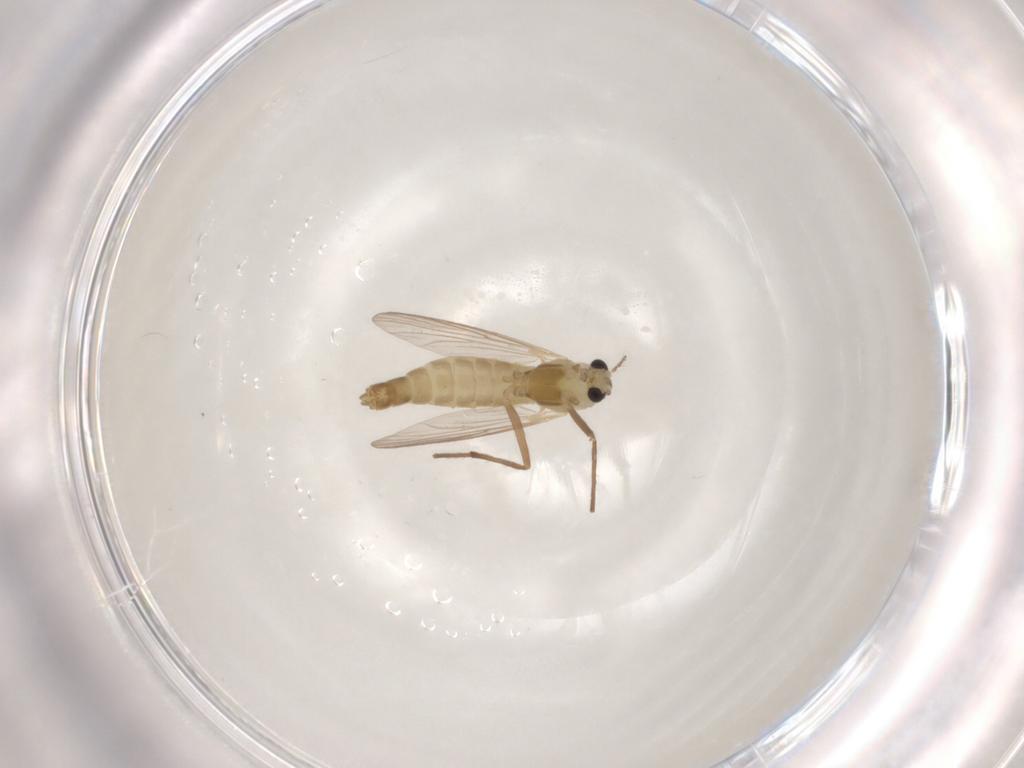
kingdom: Animalia
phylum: Arthropoda
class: Insecta
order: Diptera
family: Chironomidae
